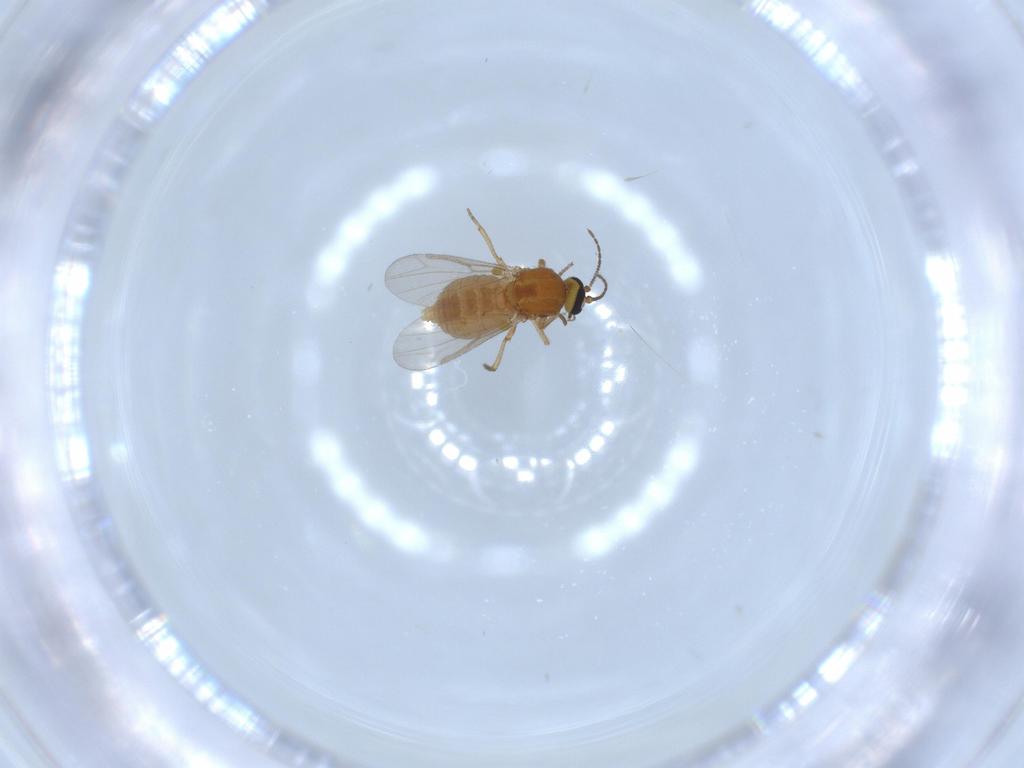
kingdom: Animalia
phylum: Arthropoda
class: Insecta
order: Diptera
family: Ceratopogonidae
